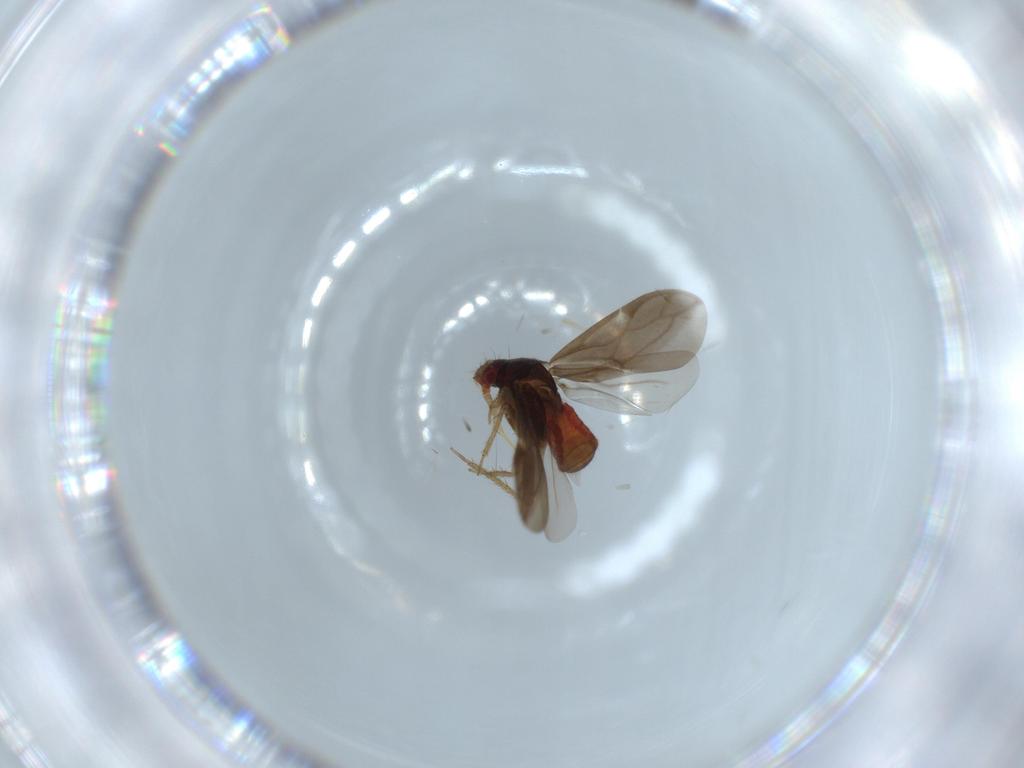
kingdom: Animalia
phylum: Arthropoda
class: Insecta
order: Hemiptera
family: Ceratocombidae
